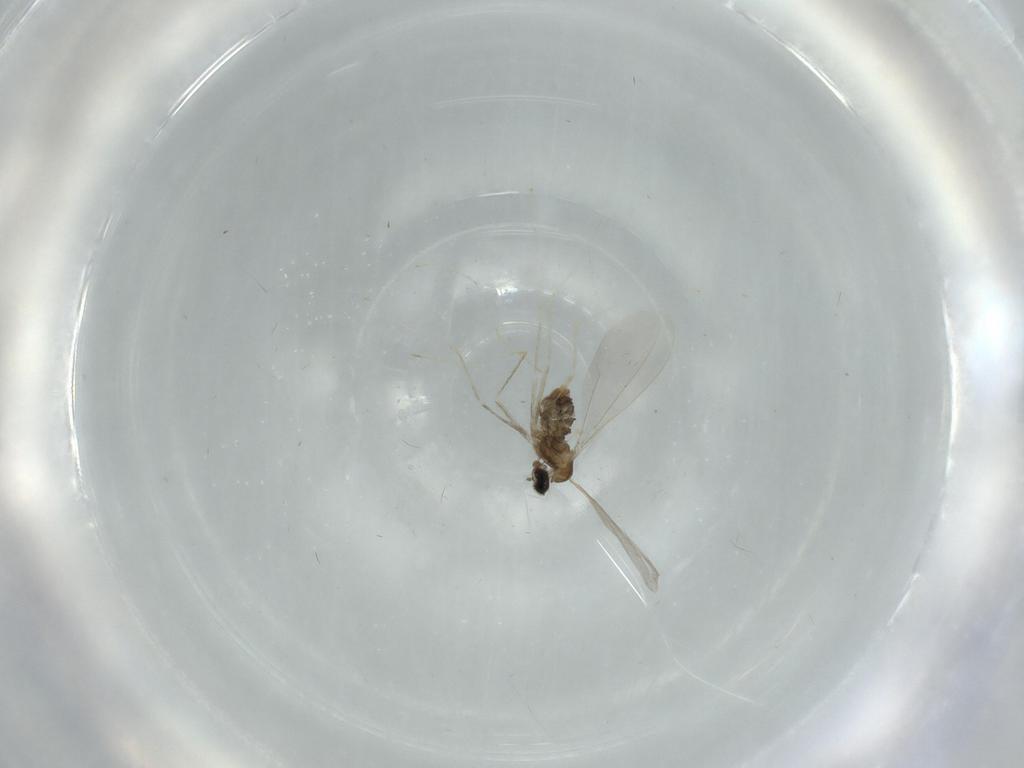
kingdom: Animalia
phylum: Arthropoda
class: Insecta
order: Diptera
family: Cecidomyiidae
